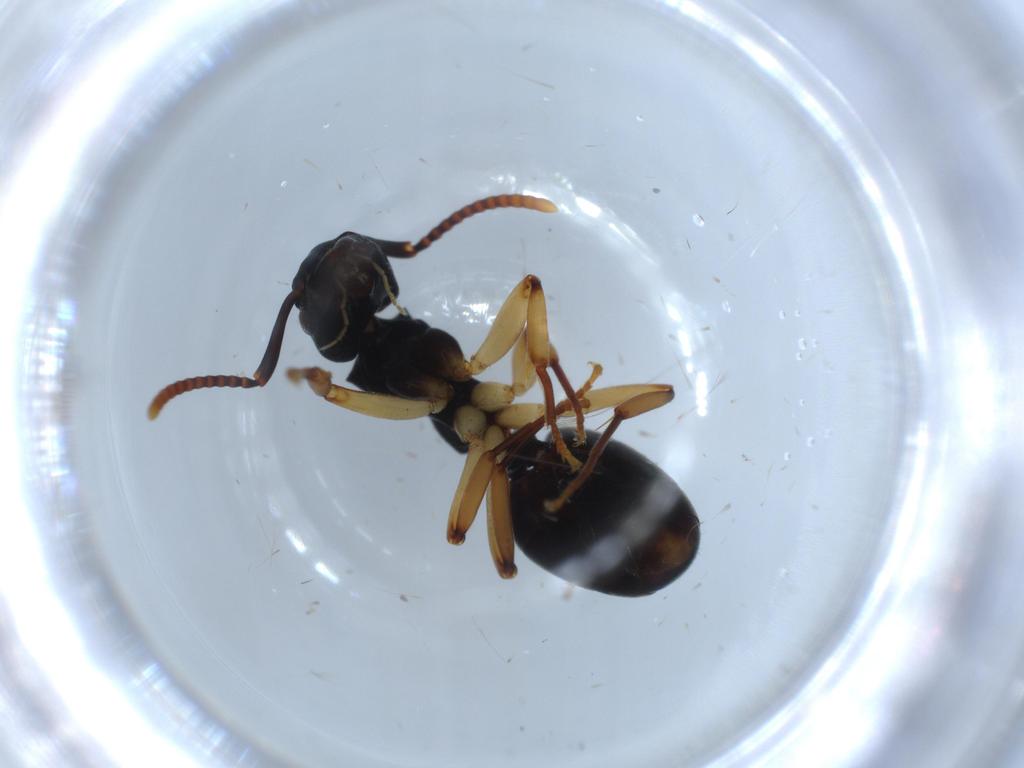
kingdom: Animalia
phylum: Arthropoda
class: Insecta
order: Hymenoptera
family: Formicidae
